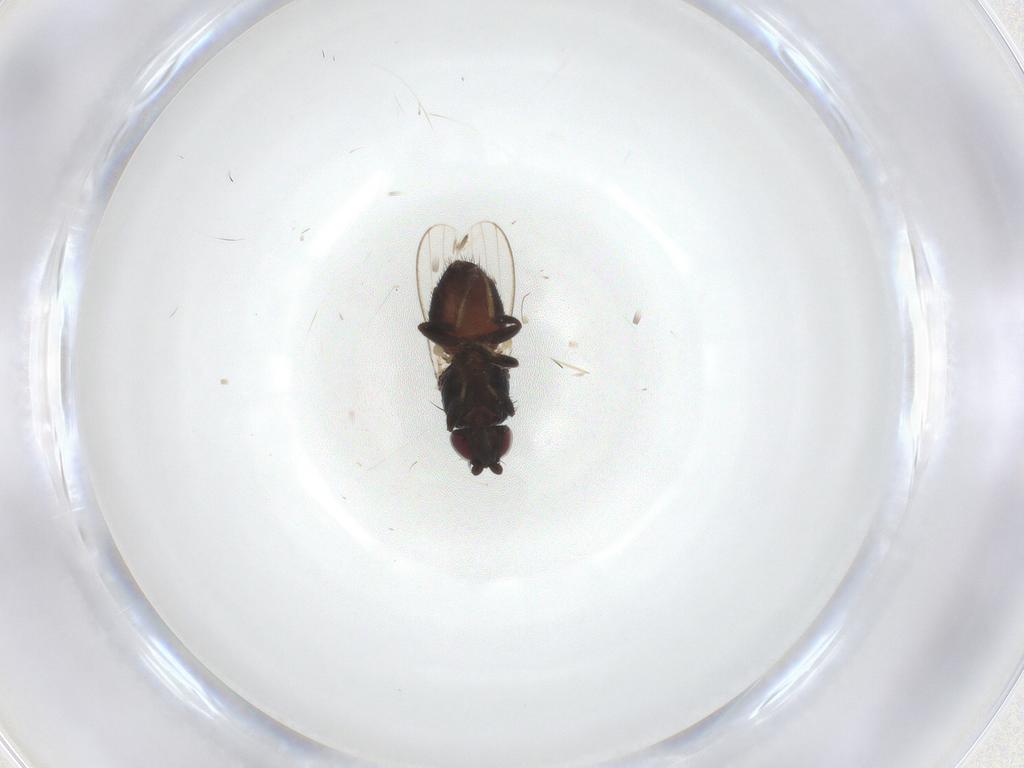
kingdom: Animalia
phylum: Arthropoda
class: Insecta
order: Diptera
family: Milichiidae
